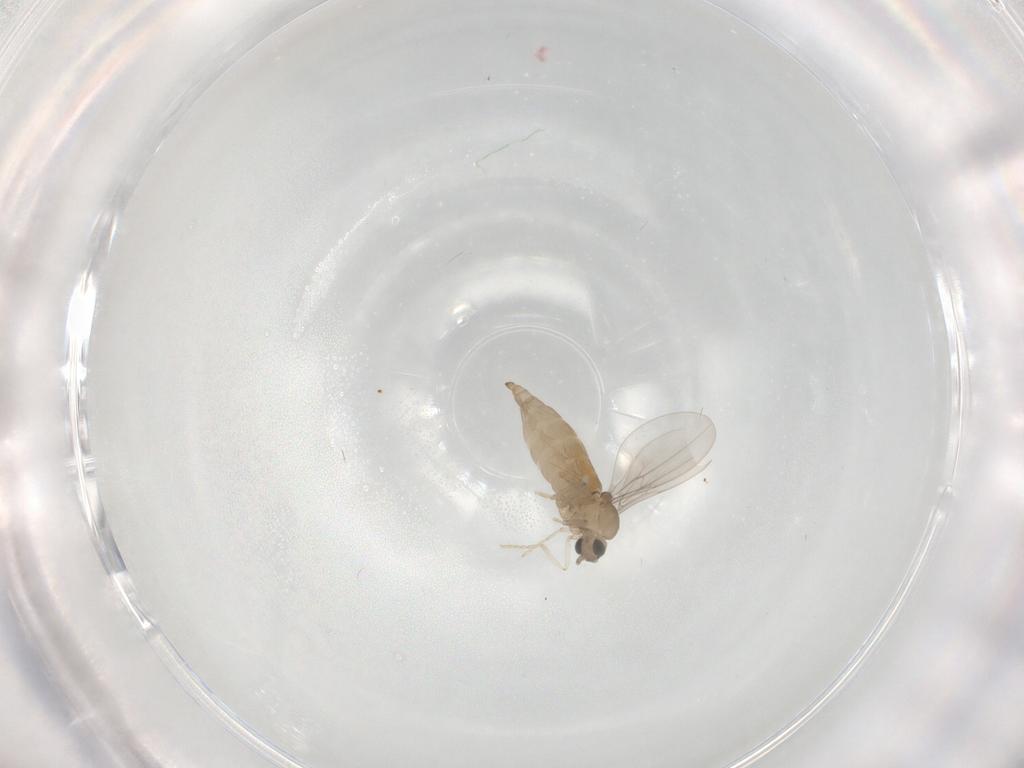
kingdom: Animalia
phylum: Arthropoda
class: Insecta
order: Diptera
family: Cecidomyiidae
